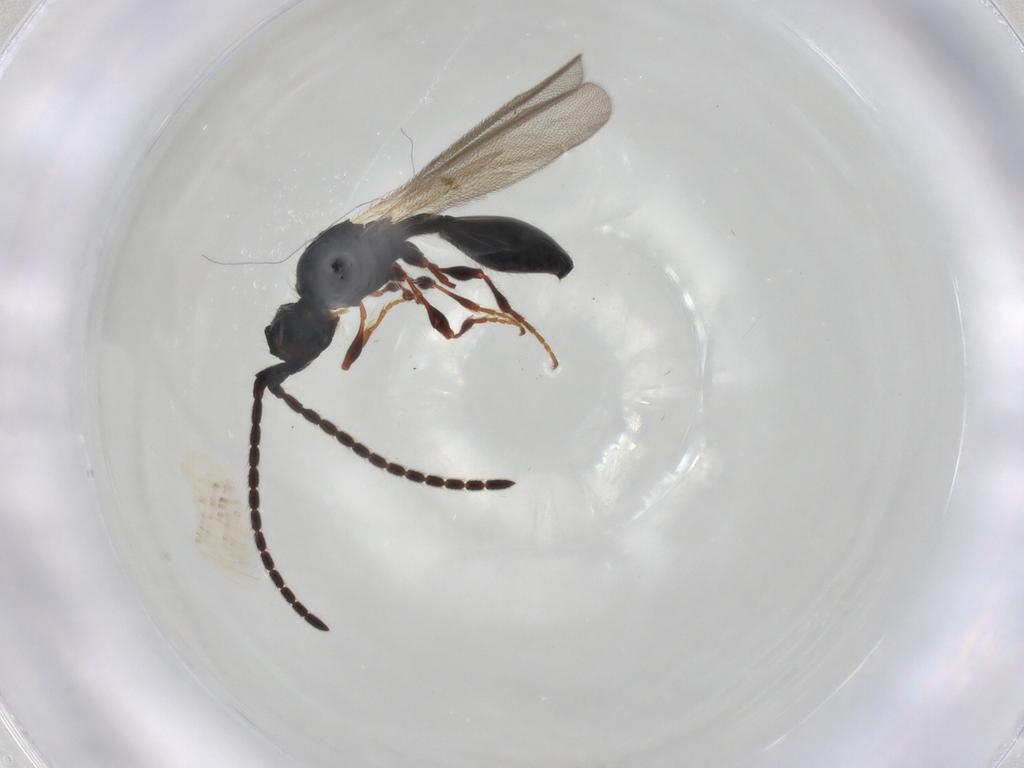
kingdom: Animalia
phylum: Arthropoda
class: Insecta
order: Hymenoptera
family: Diapriidae
